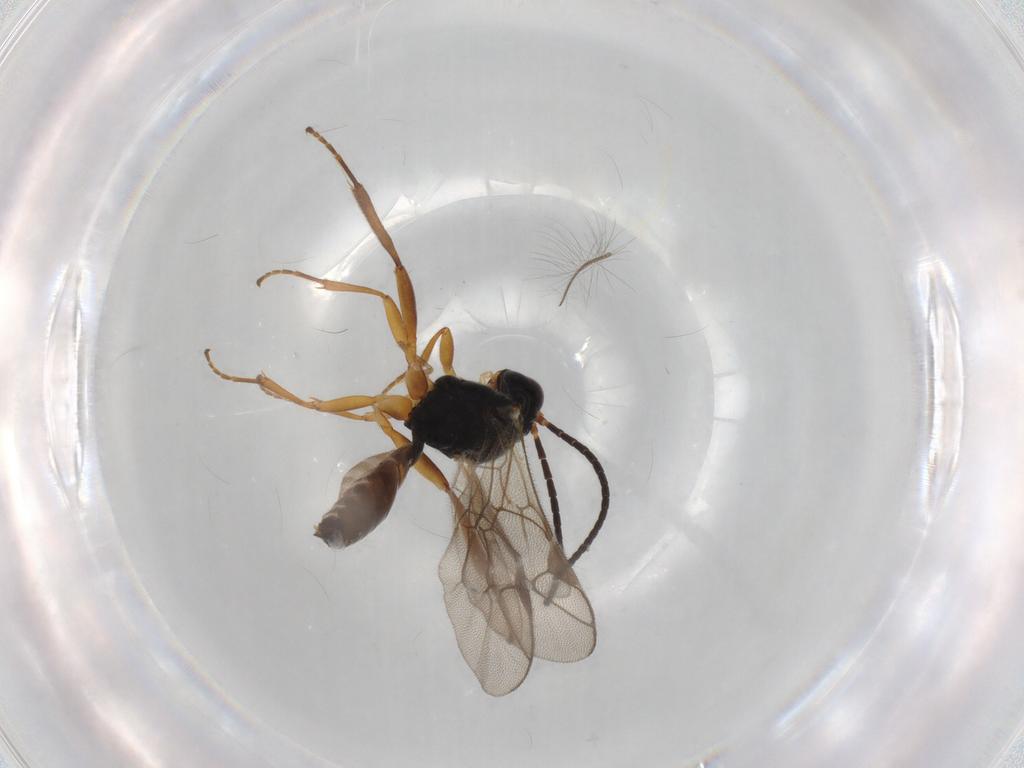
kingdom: Animalia
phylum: Arthropoda
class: Insecta
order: Hymenoptera
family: Ichneumonidae
